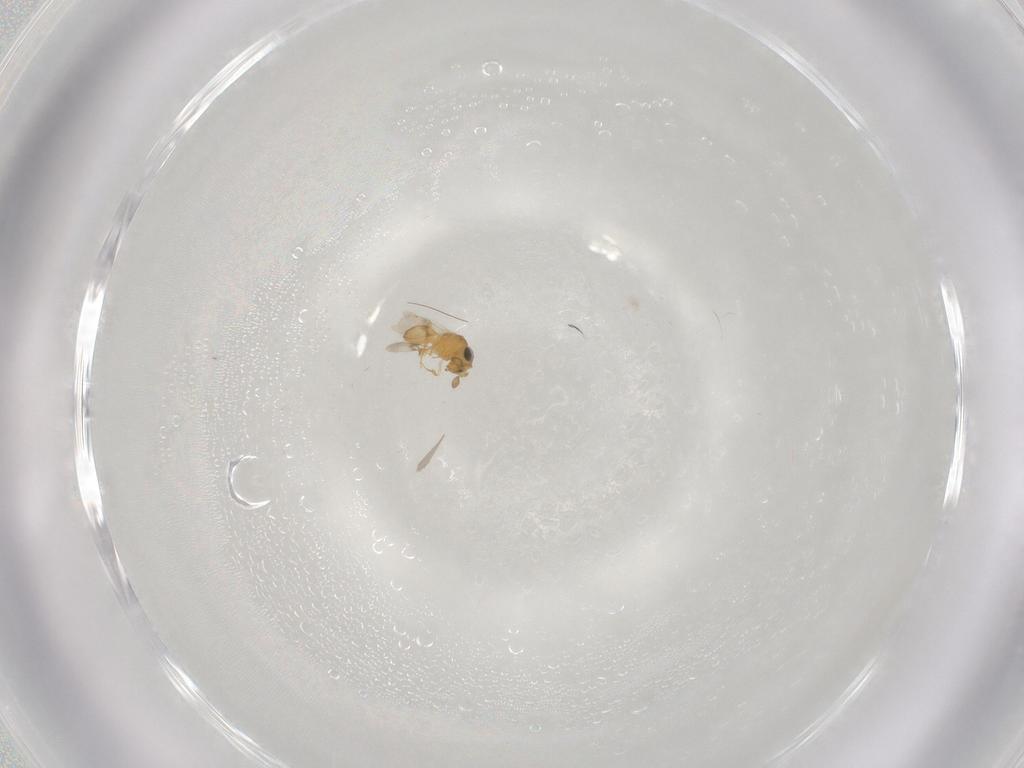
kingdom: Animalia
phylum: Arthropoda
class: Insecta
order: Hymenoptera
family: Scelionidae
